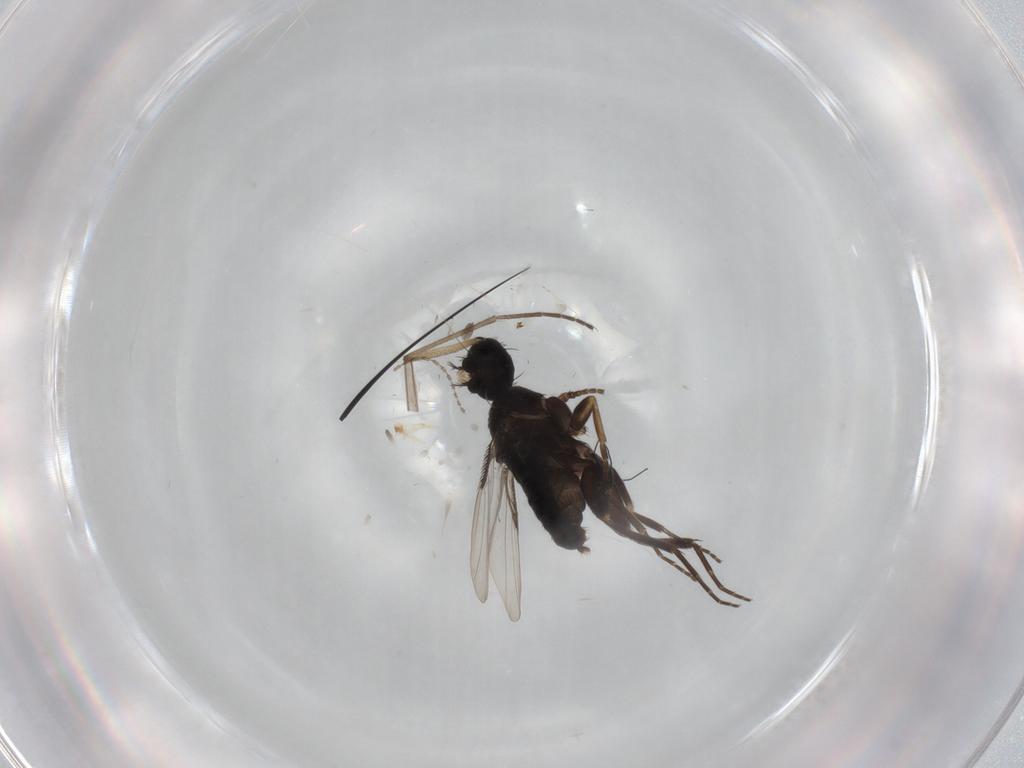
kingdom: Animalia
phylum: Arthropoda
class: Insecta
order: Diptera
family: Phoridae
